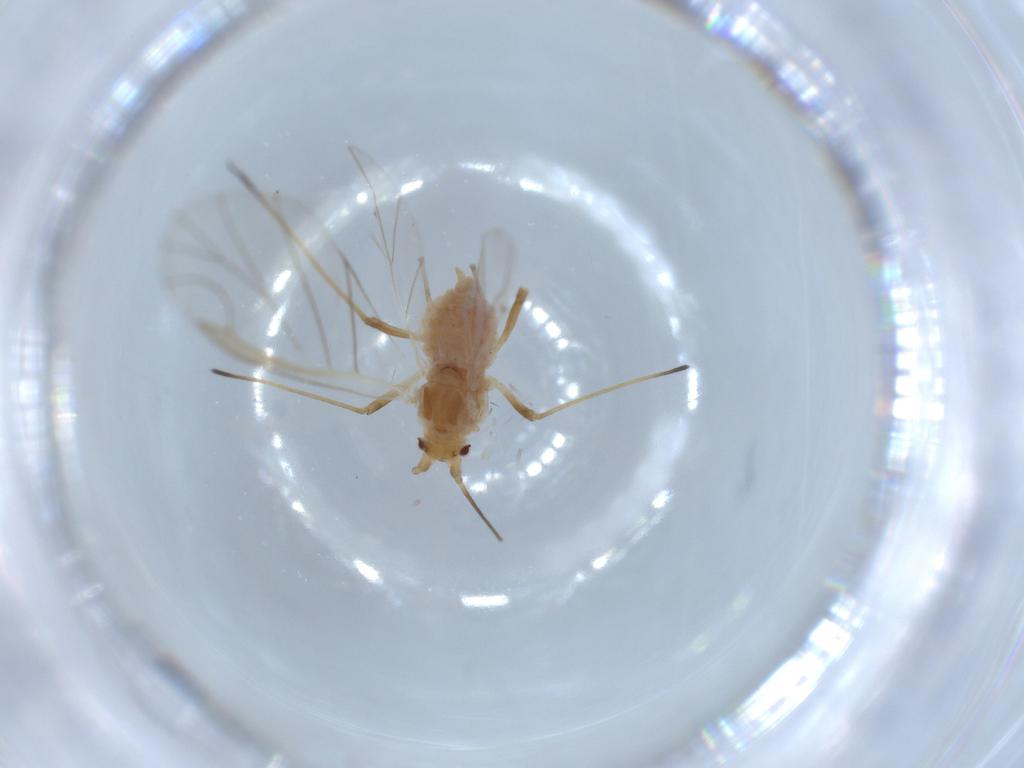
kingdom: Animalia
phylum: Arthropoda
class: Insecta
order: Hemiptera
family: Aphididae
